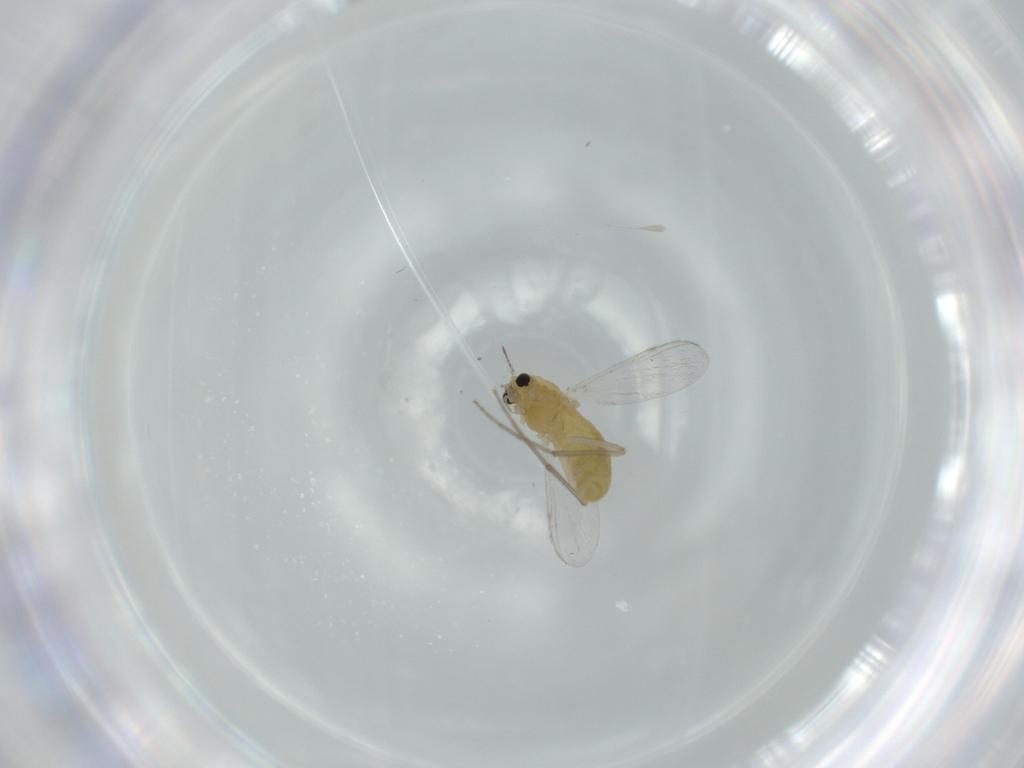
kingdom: Animalia
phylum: Arthropoda
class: Insecta
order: Diptera
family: Chironomidae
